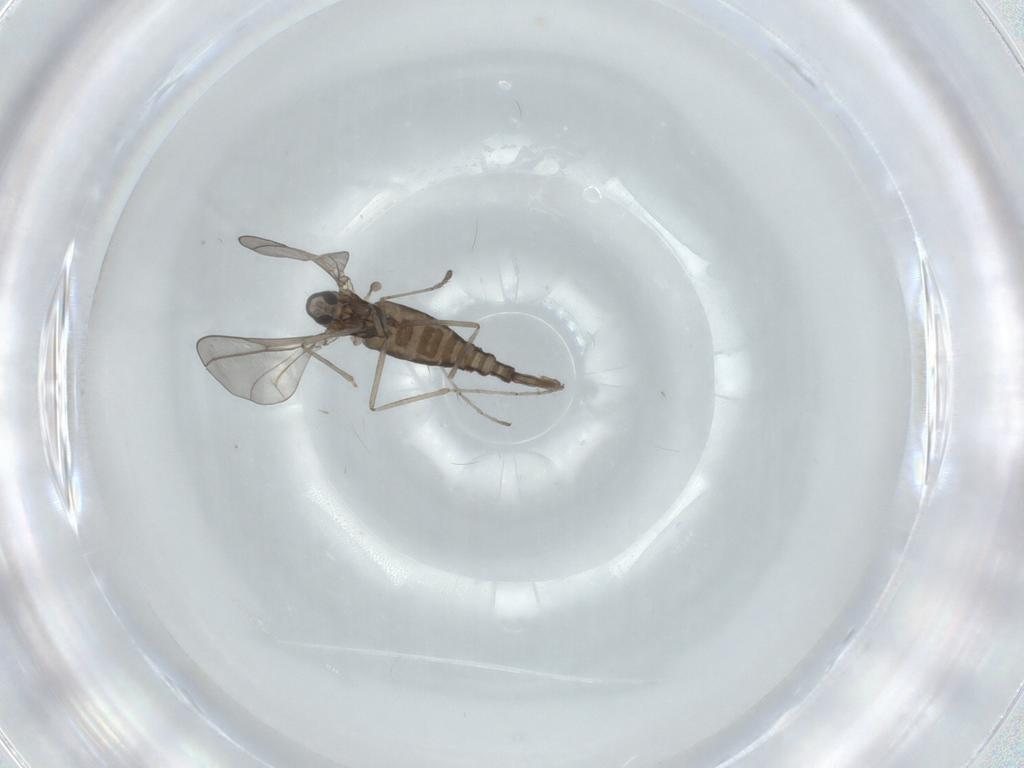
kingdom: Animalia
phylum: Arthropoda
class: Insecta
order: Diptera
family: Cecidomyiidae
